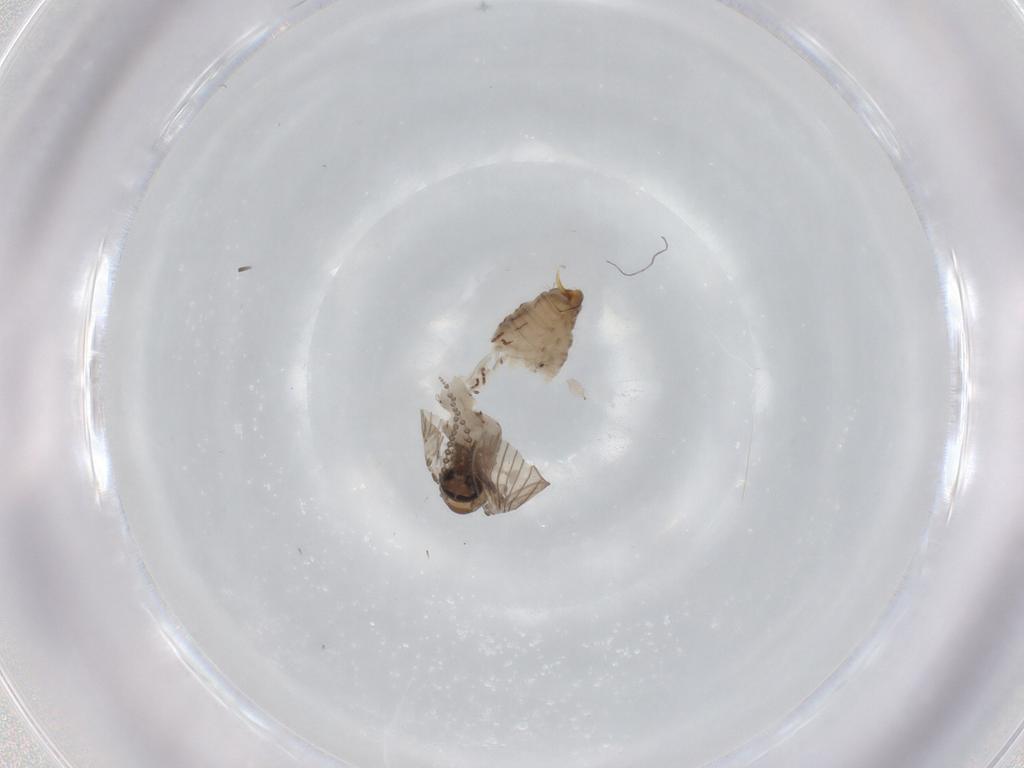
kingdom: Animalia
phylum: Arthropoda
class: Insecta
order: Diptera
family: Psychodidae
